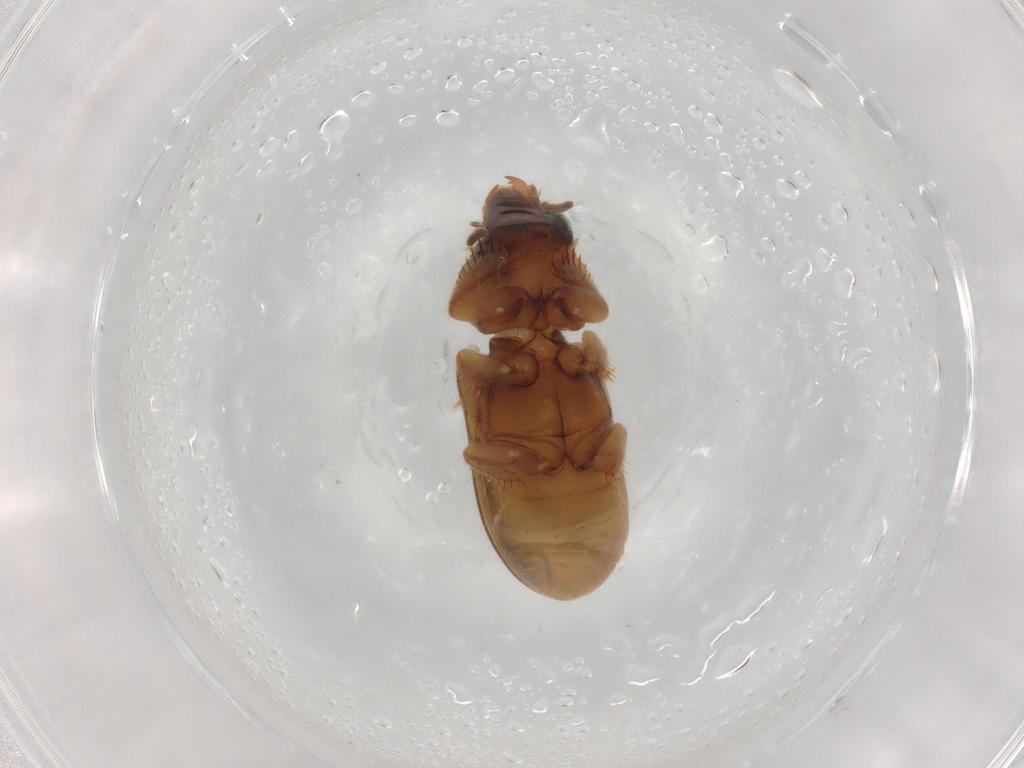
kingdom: Animalia
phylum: Arthropoda
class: Insecta
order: Coleoptera
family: Heteroceridae
